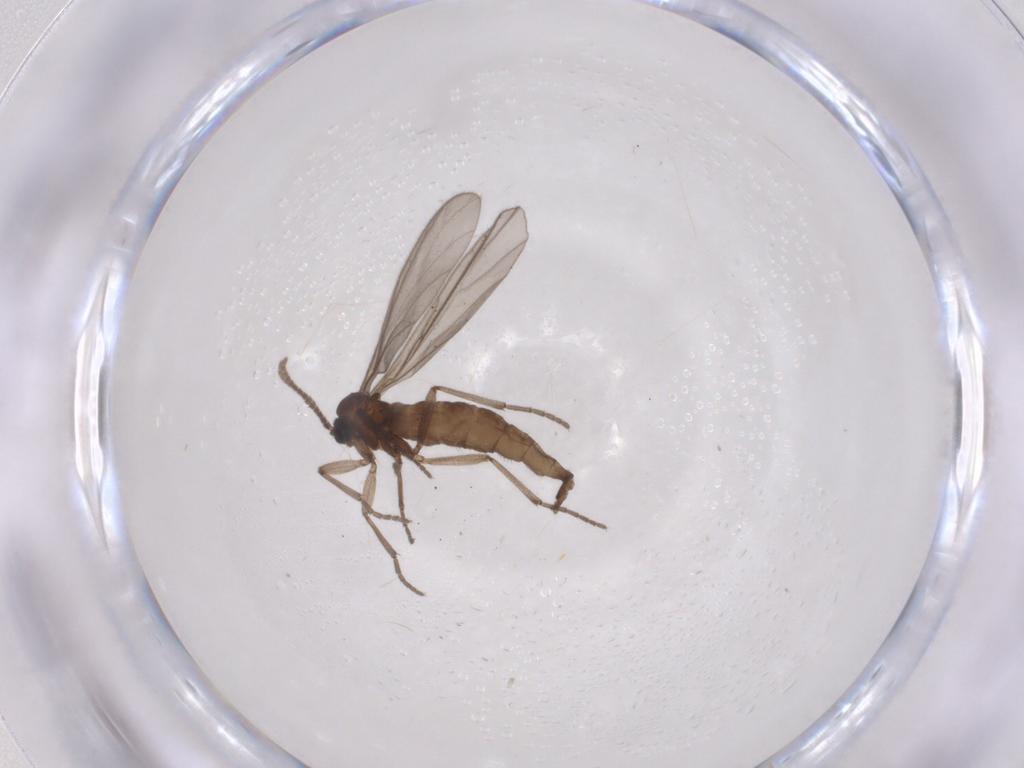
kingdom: Animalia
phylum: Arthropoda
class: Insecta
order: Diptera
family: Sciaridae
